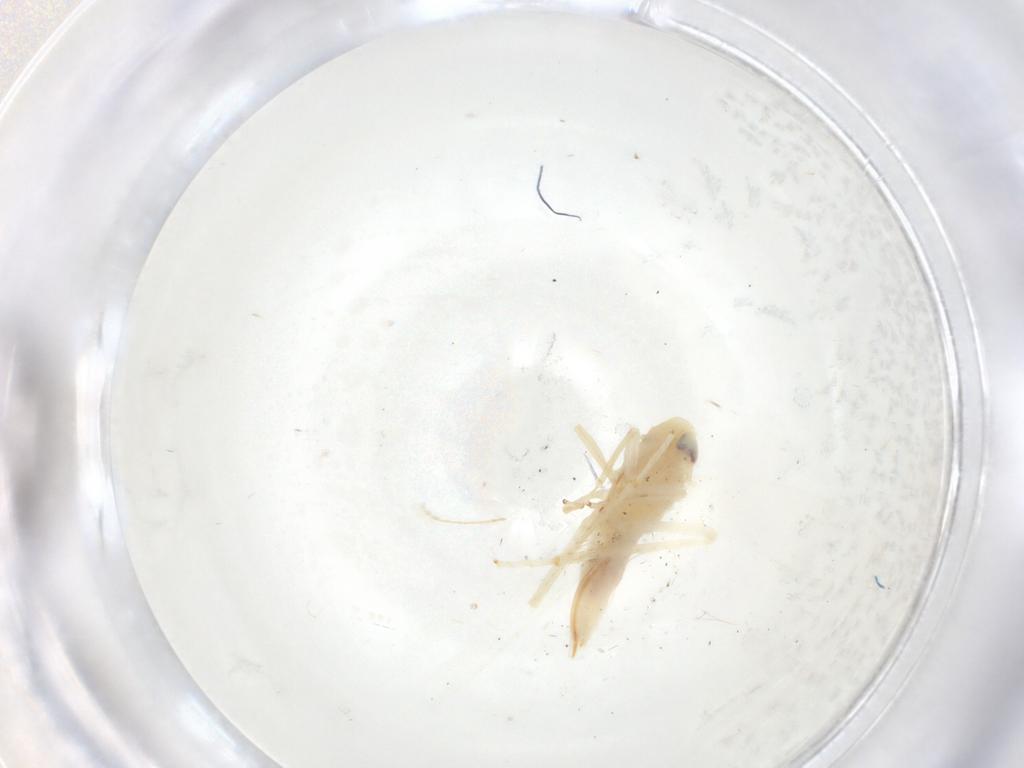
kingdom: Animalia
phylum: Arthropoda
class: Insecta
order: Hemiptera
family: Cicadellidae
